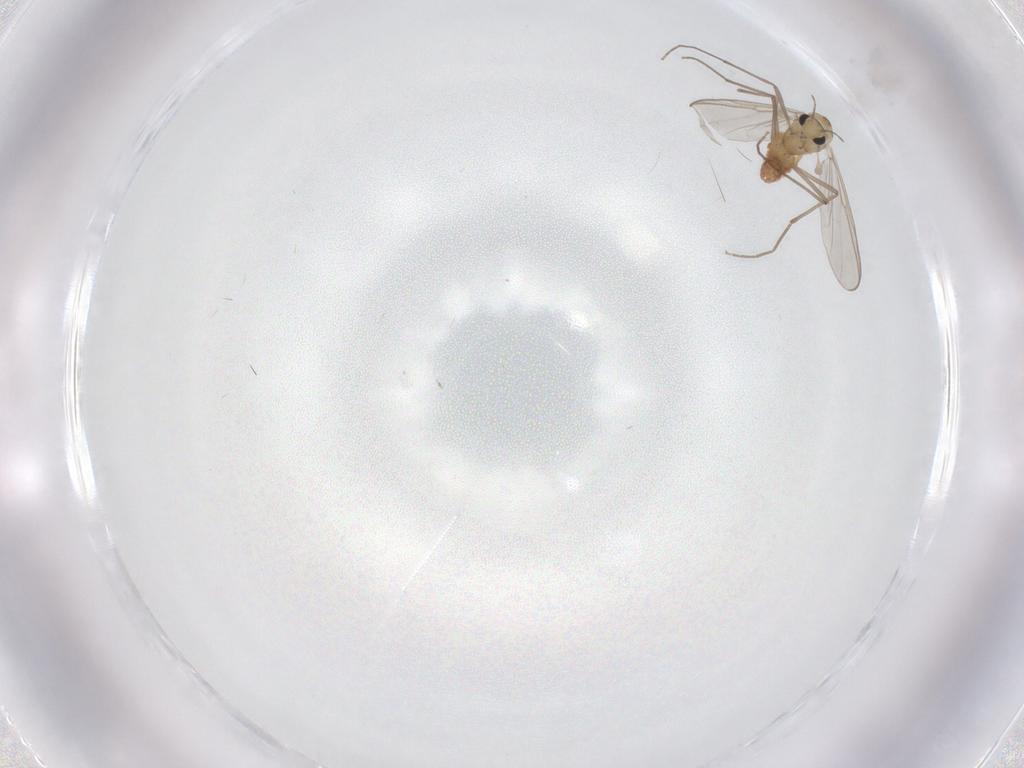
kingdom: Animalia
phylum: Arthropoda
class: Insecta
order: Diptera
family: Chironomidae
